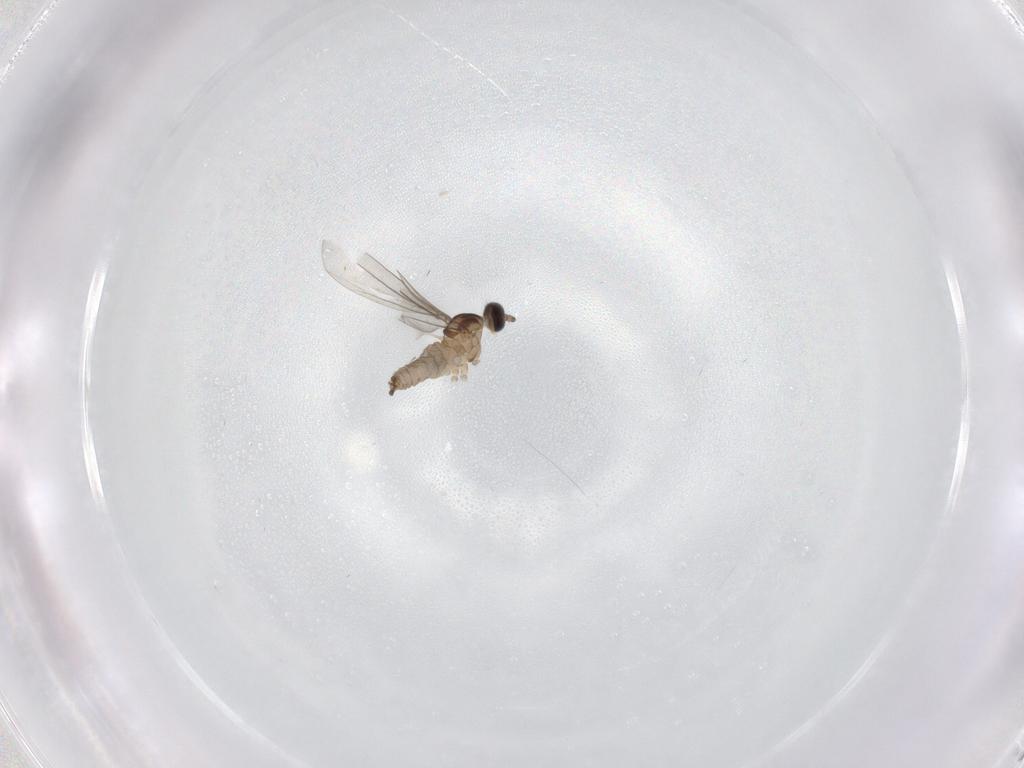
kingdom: Animalia
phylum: Arthropoda
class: Insecta
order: Diptera
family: Cecidomyiidae
